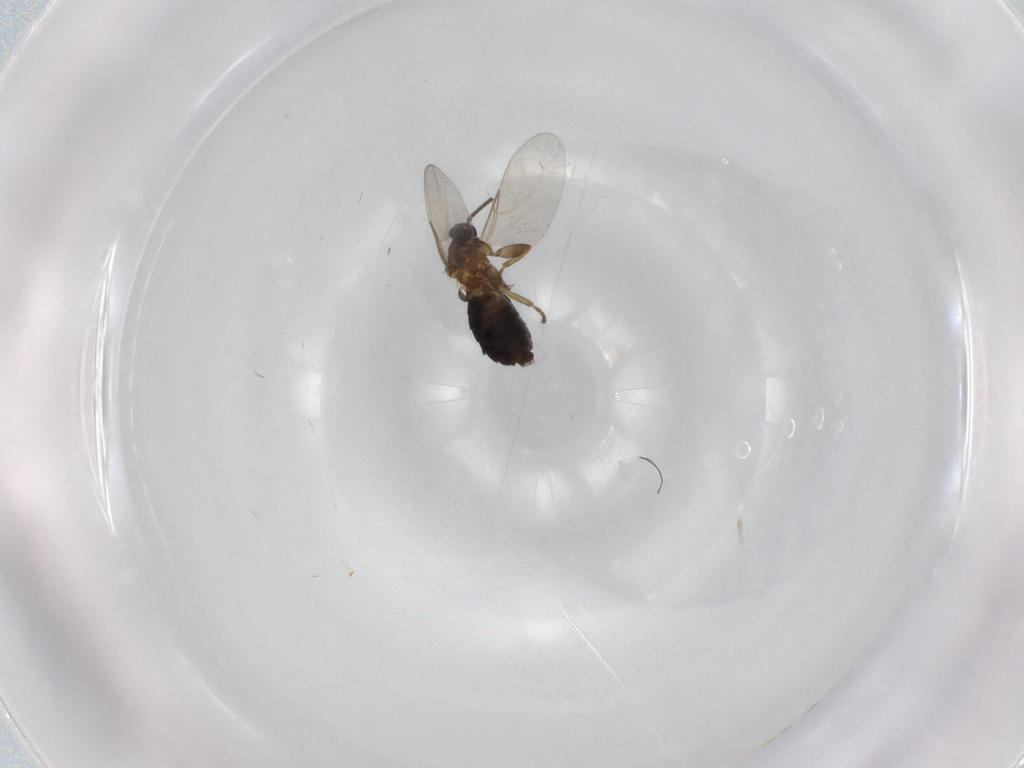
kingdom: Animalia
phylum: Arthropoda
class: Insecta
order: Diptera
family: Scatopsidae
